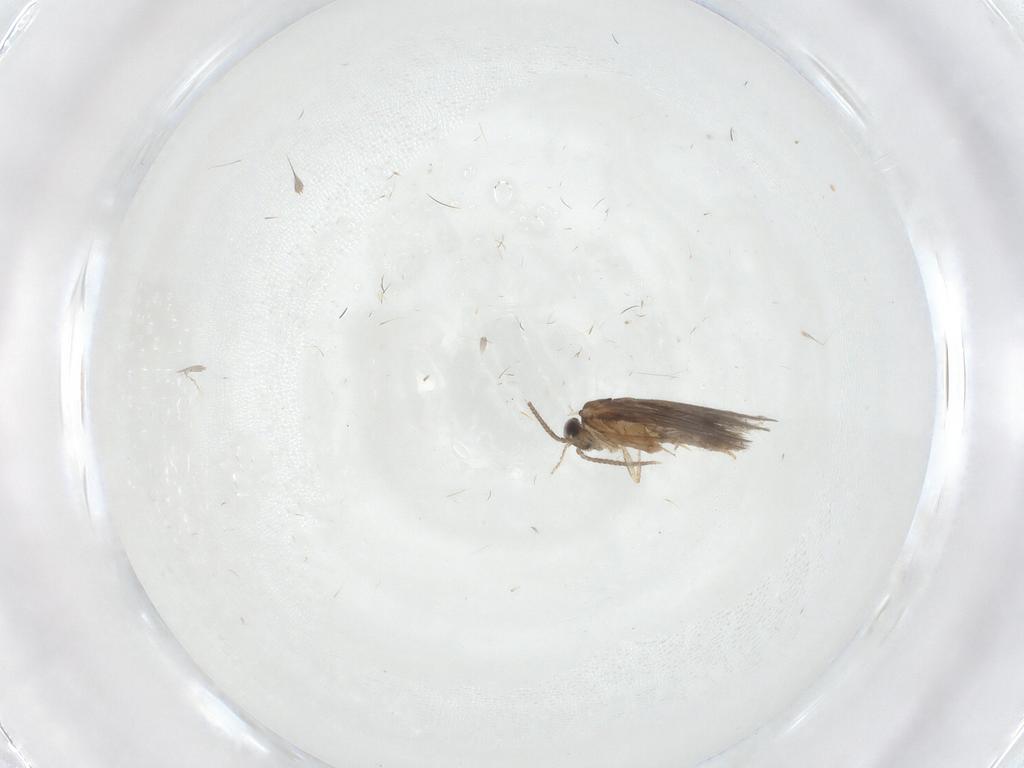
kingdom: Animalia
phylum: Arthropoda
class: Insecta
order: Trichoptera
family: Hydroptilidae
